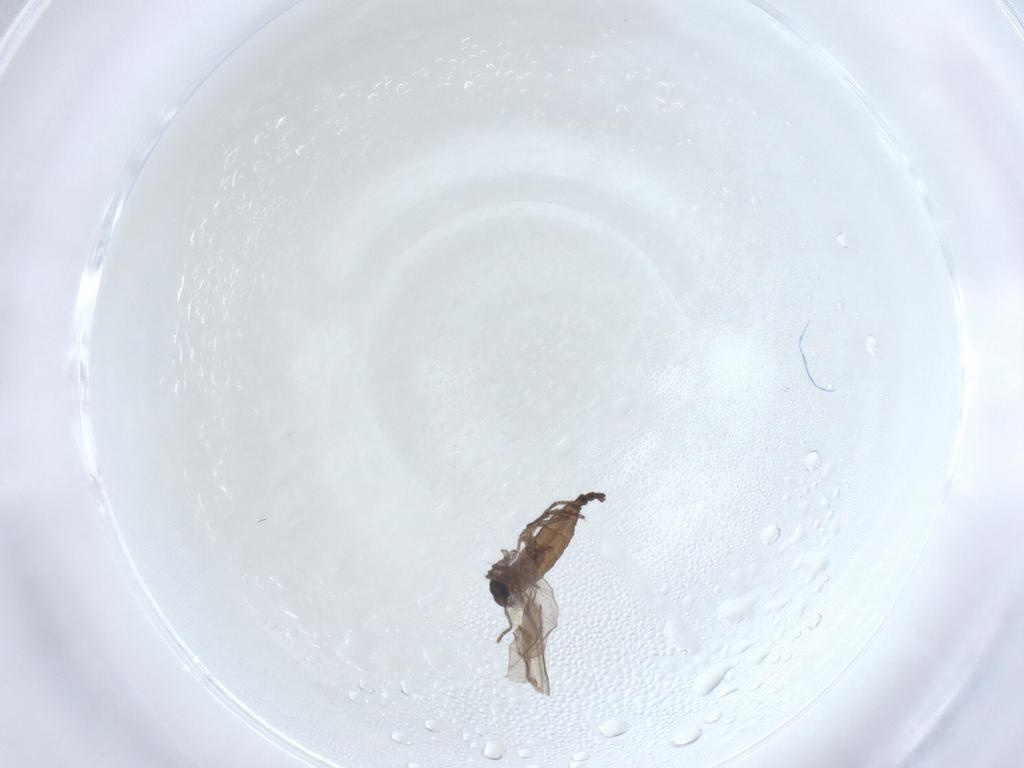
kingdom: Animalia
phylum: Arthropoda
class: Insecta
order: Diptera
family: Sciaridae
